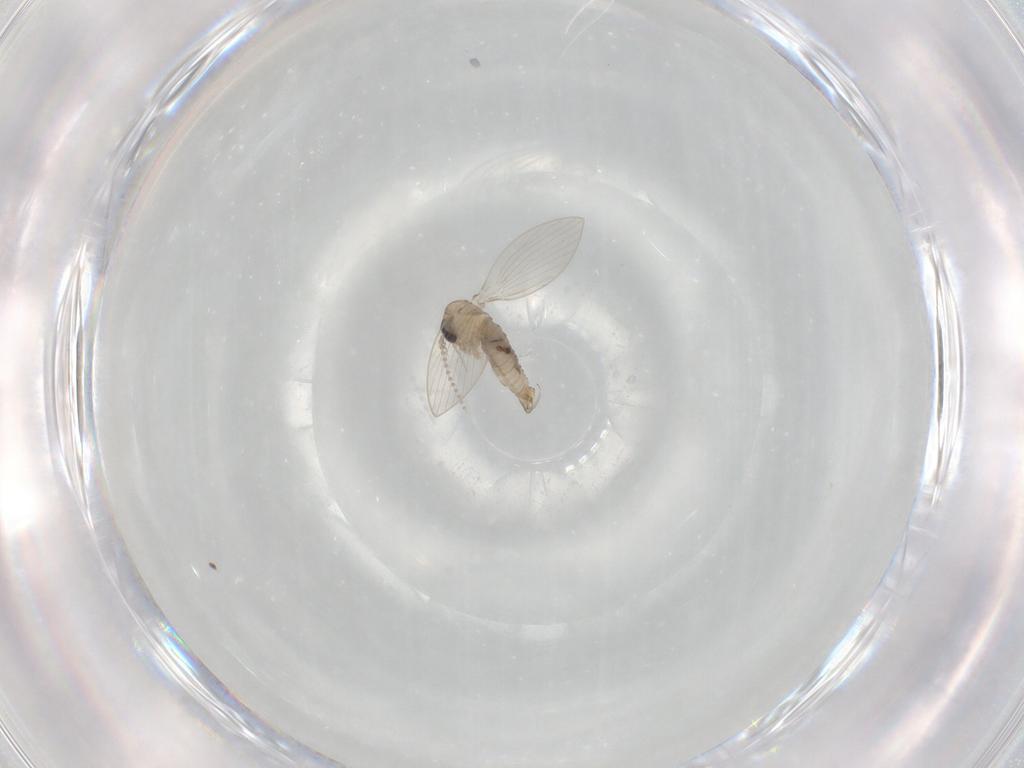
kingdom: Animalia
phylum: Arthropoda
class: Insecta
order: Diptera
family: Psychodidae
